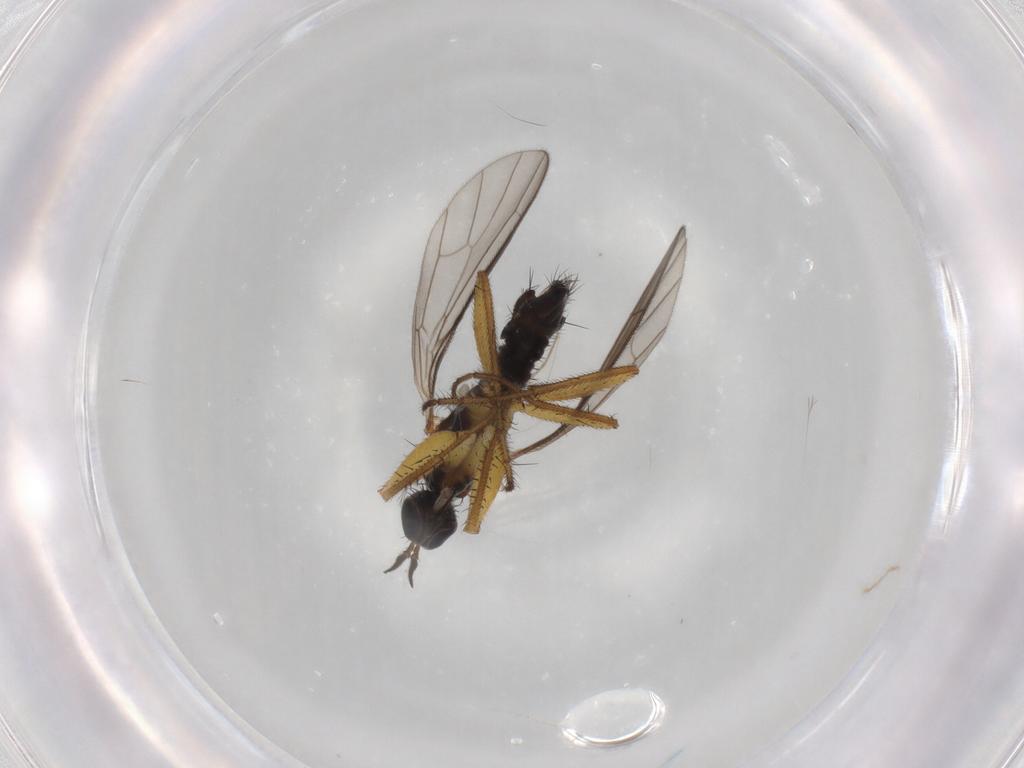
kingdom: Animalia
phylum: Arthropoda
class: Insecta
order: Diptera
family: Empididae
